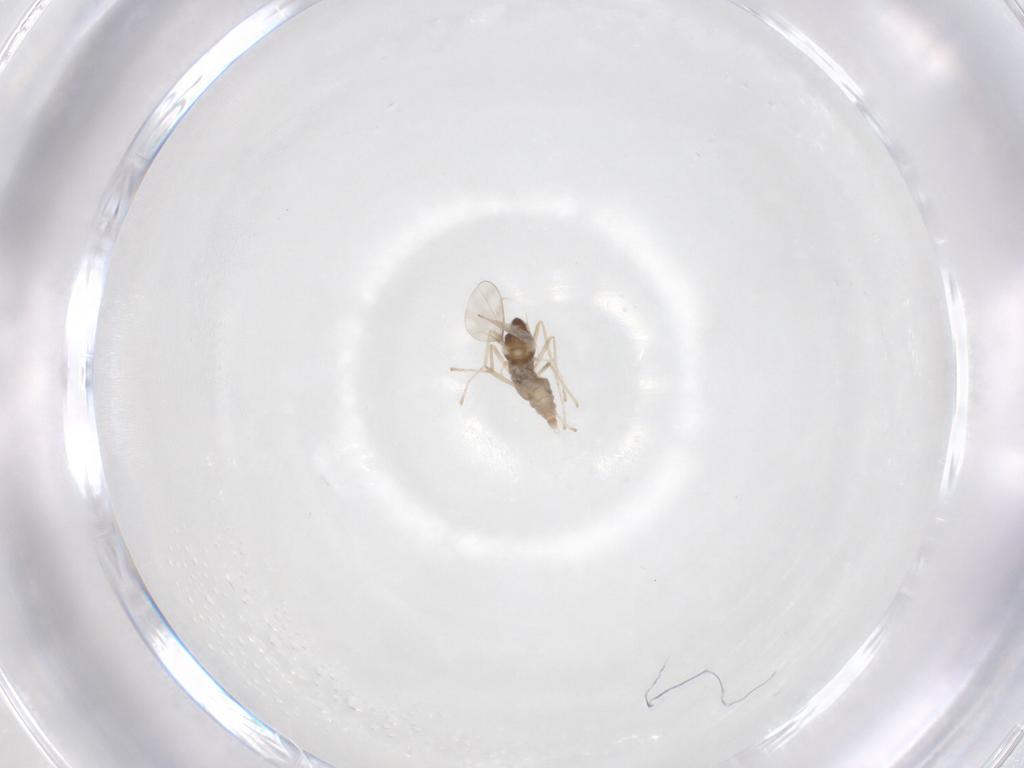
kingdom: Animalia
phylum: Arthropoda
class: Insecta
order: Diptera
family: Cecidomyiidae
